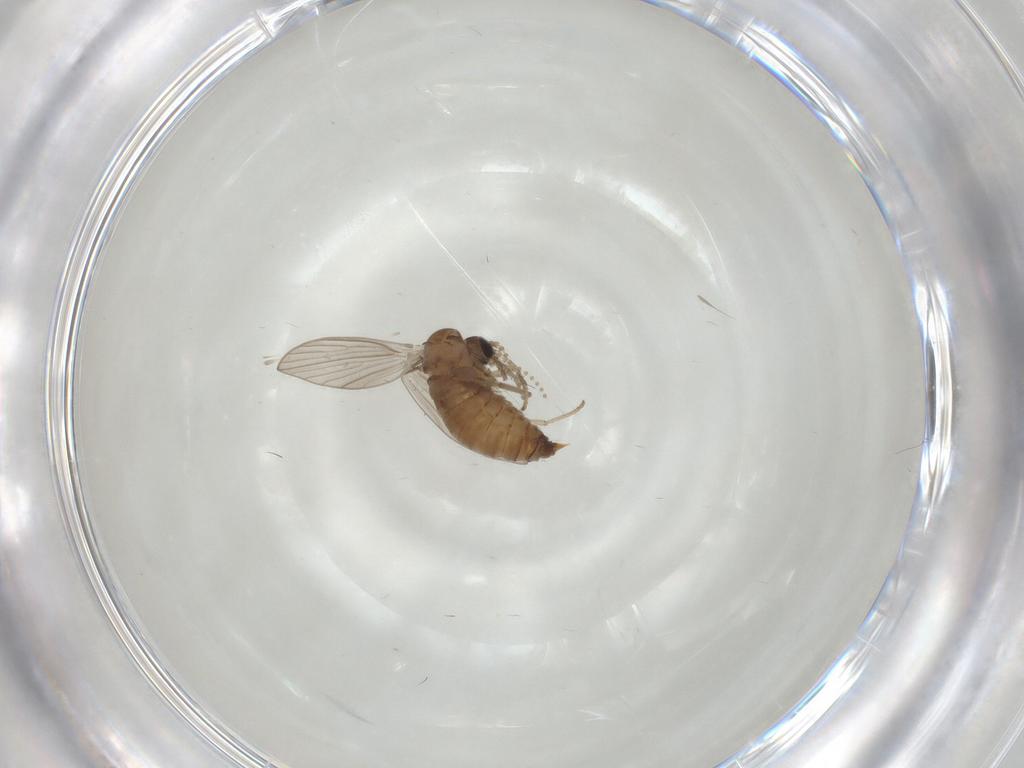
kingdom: Animalia
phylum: Arthropoda
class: Insecta
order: Diptera
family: Psychodidae
